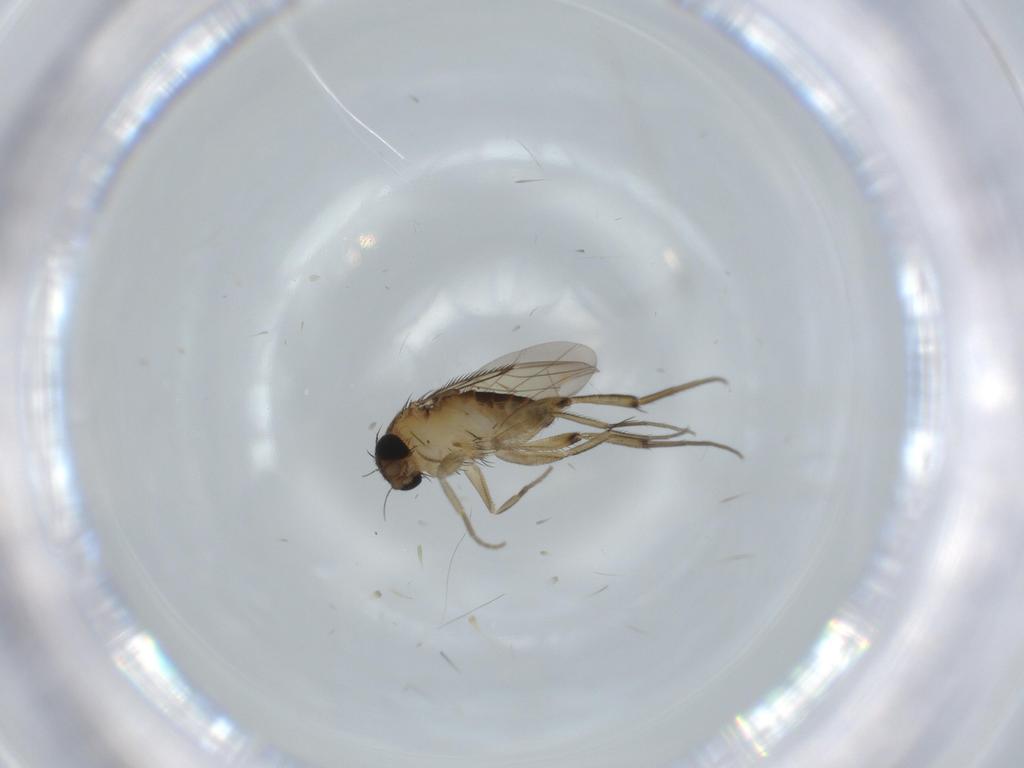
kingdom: Animalia
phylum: Arthropoda
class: Insecta
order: Diptera
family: Phoridae
